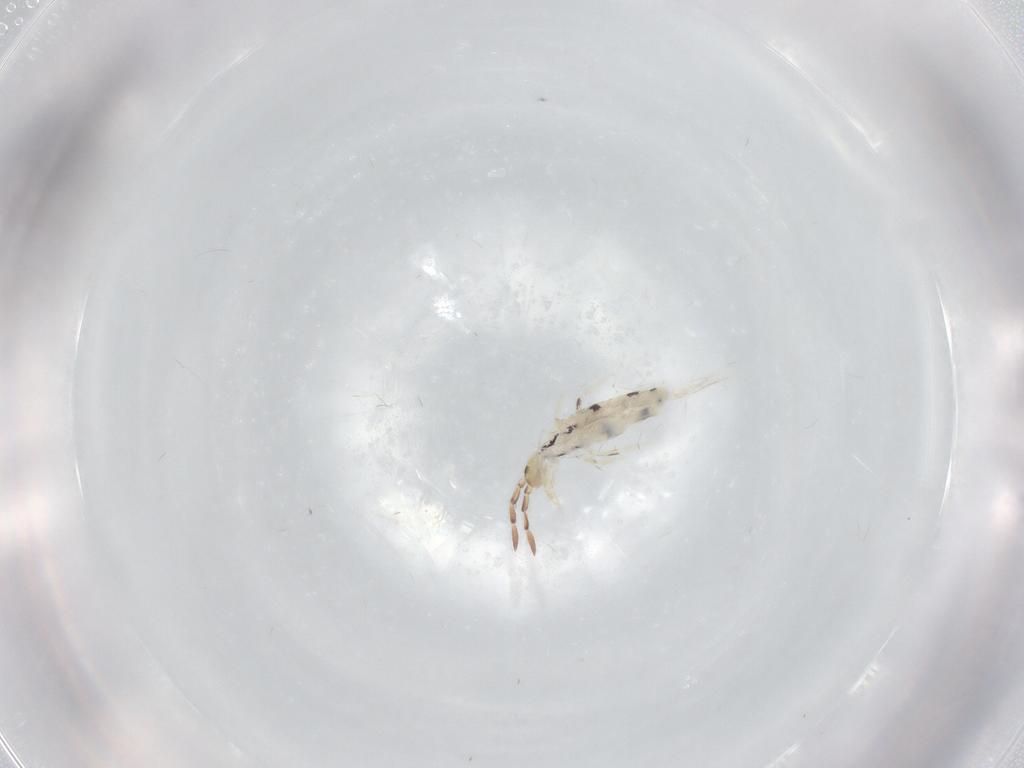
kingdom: Animalia
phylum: Arthropoda
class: Collembola
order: Entomobryomorpha
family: Entomobryidae
